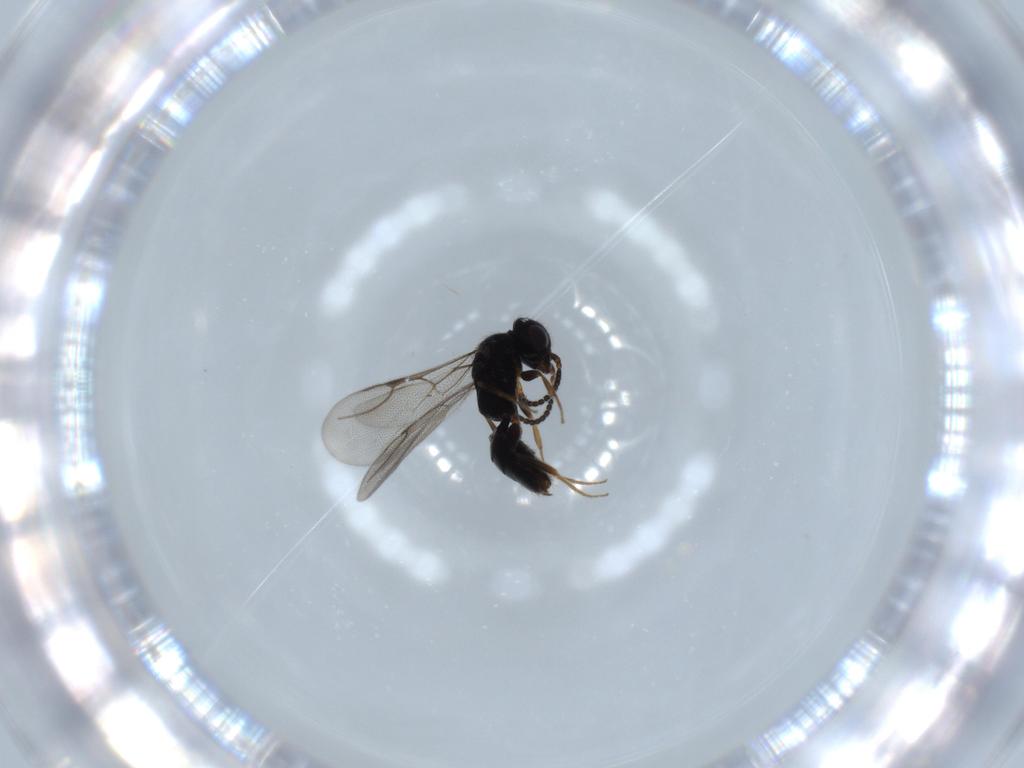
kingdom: Animalia
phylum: Arthropoda
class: Insecta
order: Hymenoptera
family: Bethylidae
